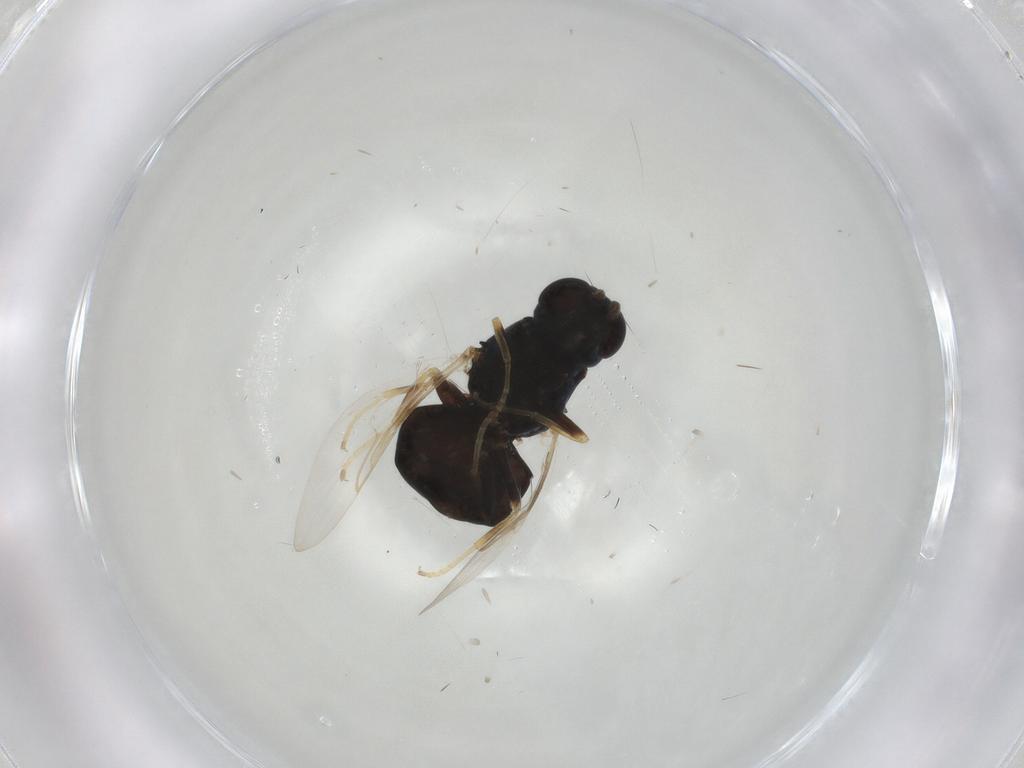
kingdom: Animalia
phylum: Arthropoda
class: Insecta
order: Diptera
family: Stratiomyidae
